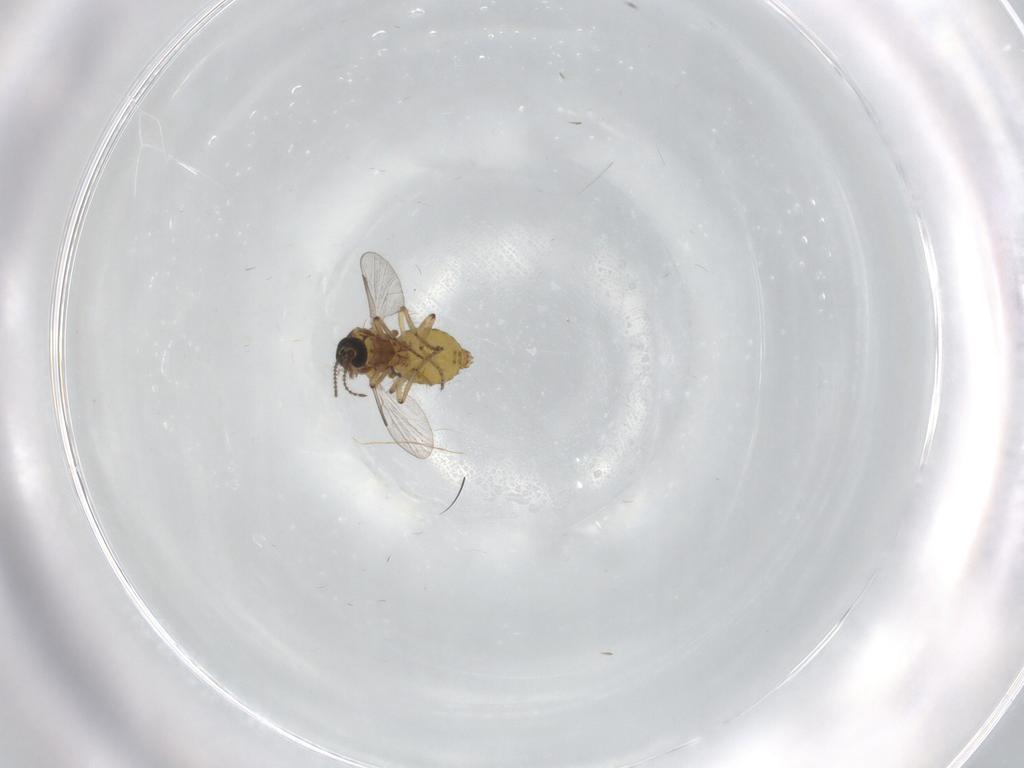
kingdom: Animalia
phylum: Arthropoda
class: Insecta
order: Diptera
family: Ceratopogonidae
